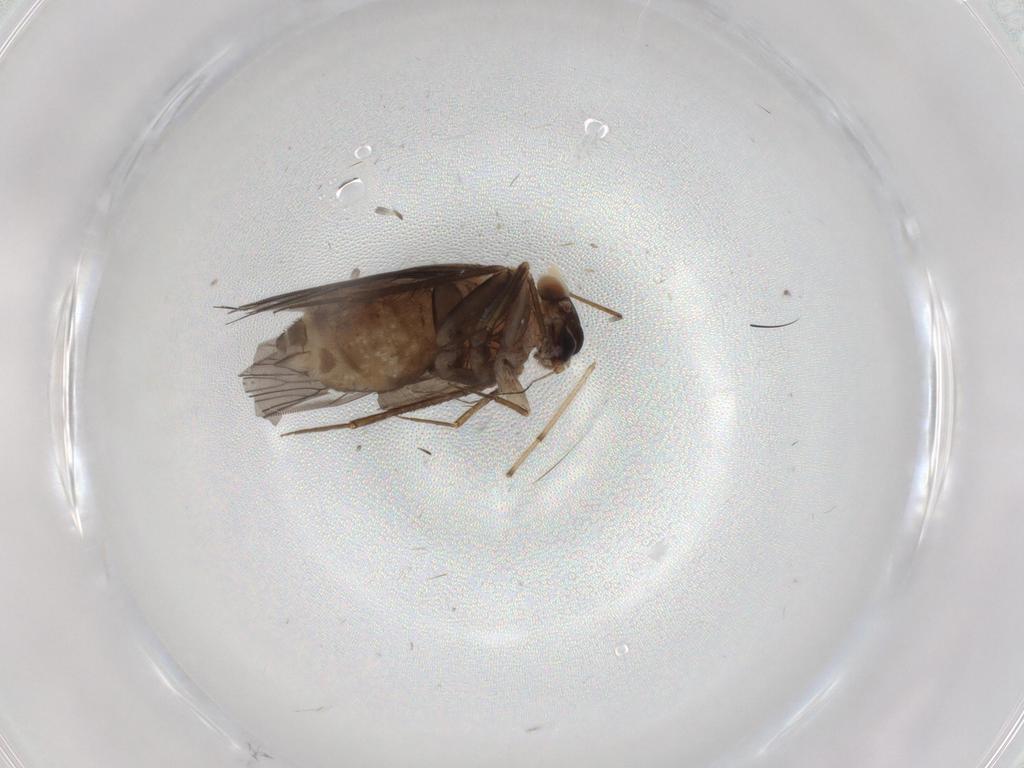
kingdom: Animalia
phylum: Arthropoda
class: Insecta
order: Psocodea
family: Lepidopsocidae
